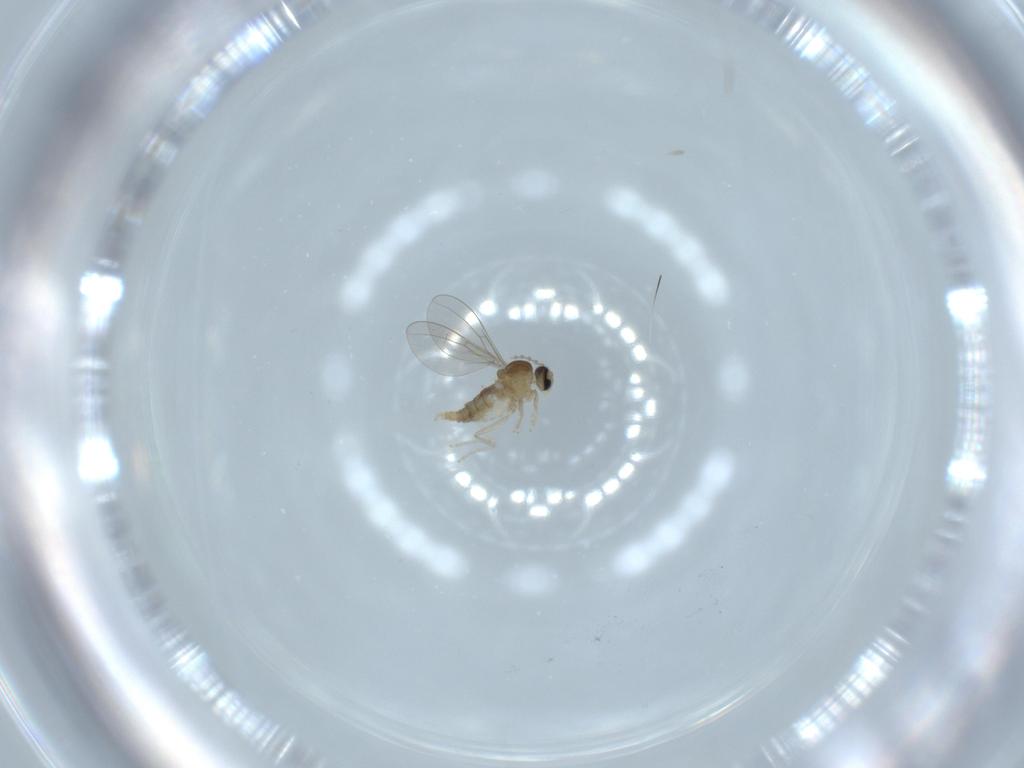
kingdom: Animalia
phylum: Arthropoda
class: Insecta
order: Diptera
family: Cecidomyiidae
